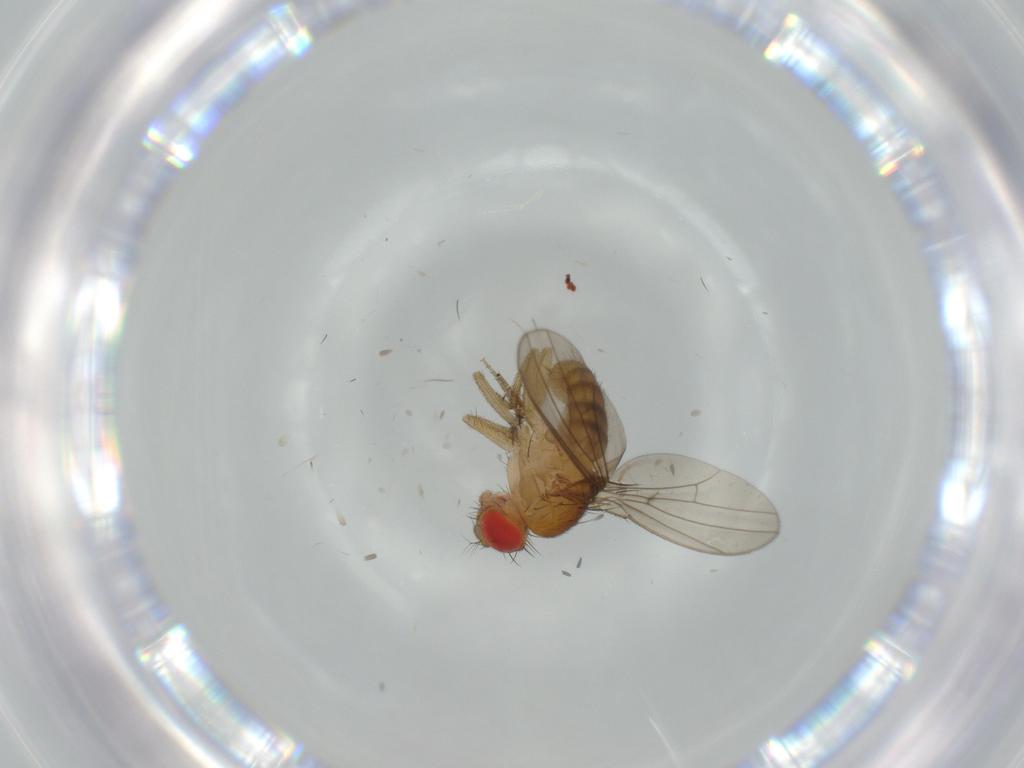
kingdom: Animalia
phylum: Arthropoda
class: Insecta
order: Diptera
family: Drosophilidae
